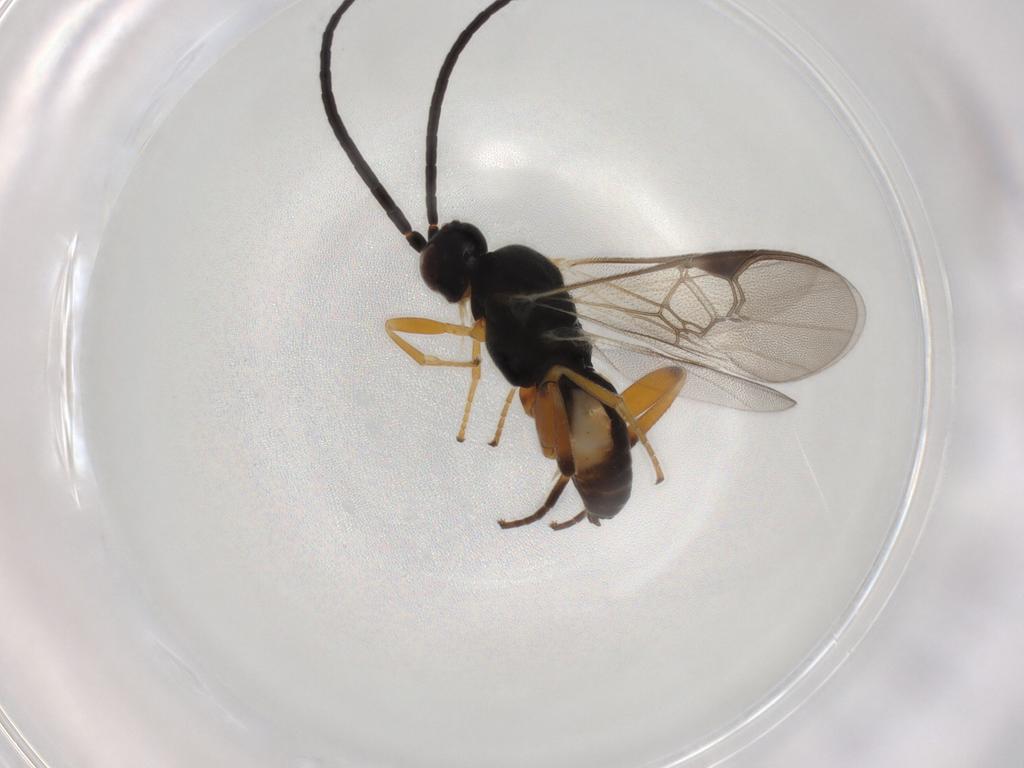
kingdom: Animalia
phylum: Arthropoda
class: Insecta
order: Hymenoptera
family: Braconidae
